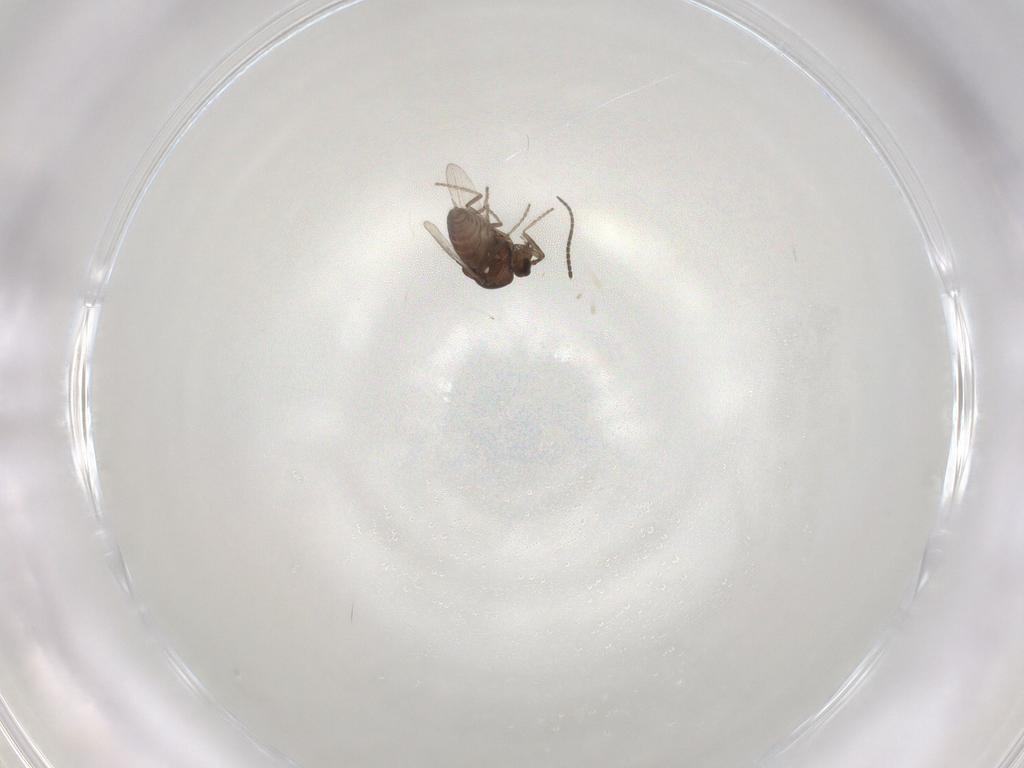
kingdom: Animalia
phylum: Arthropoda
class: Insecta
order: Diptera
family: Ceratopogonidae
